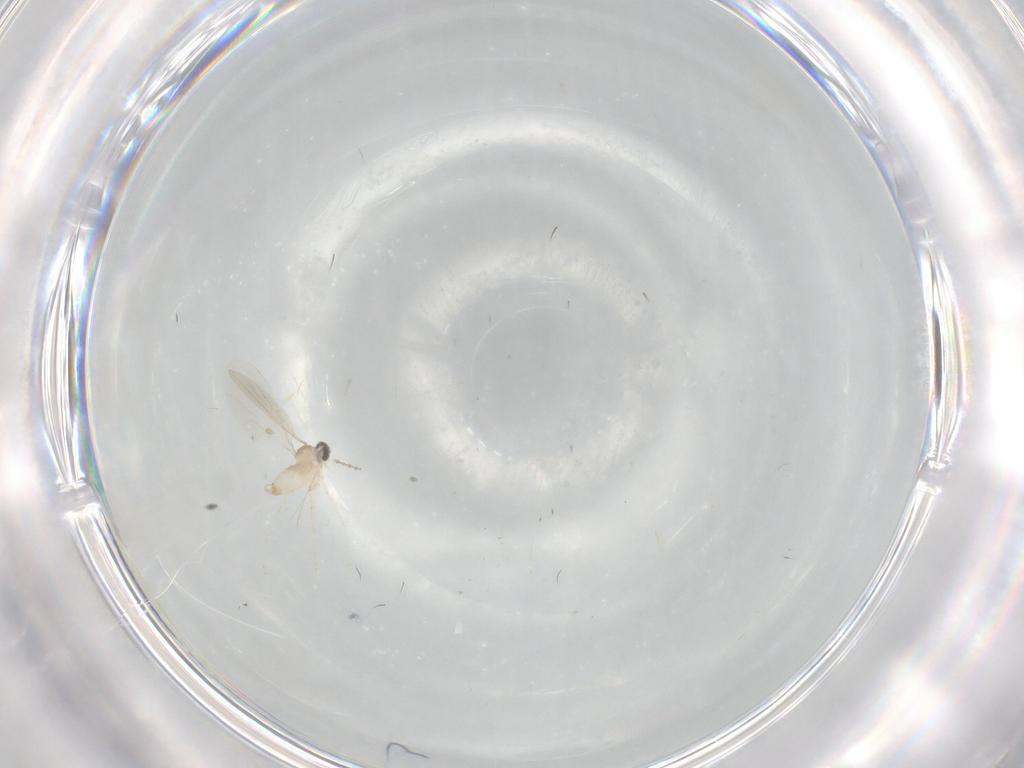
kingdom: Animalia
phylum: Arthropoda
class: Insecta
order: Diptera
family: Cecidomyiidae
